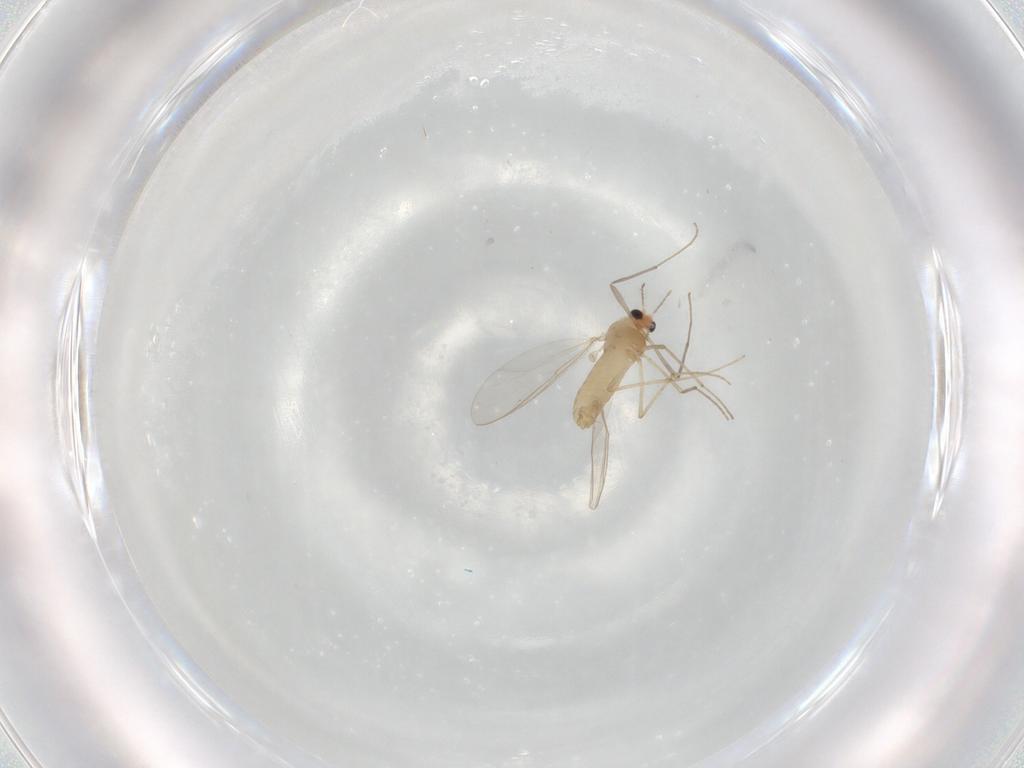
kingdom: Animalia
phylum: Arthropoda
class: Insecta
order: Diptera
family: Chironomidae
